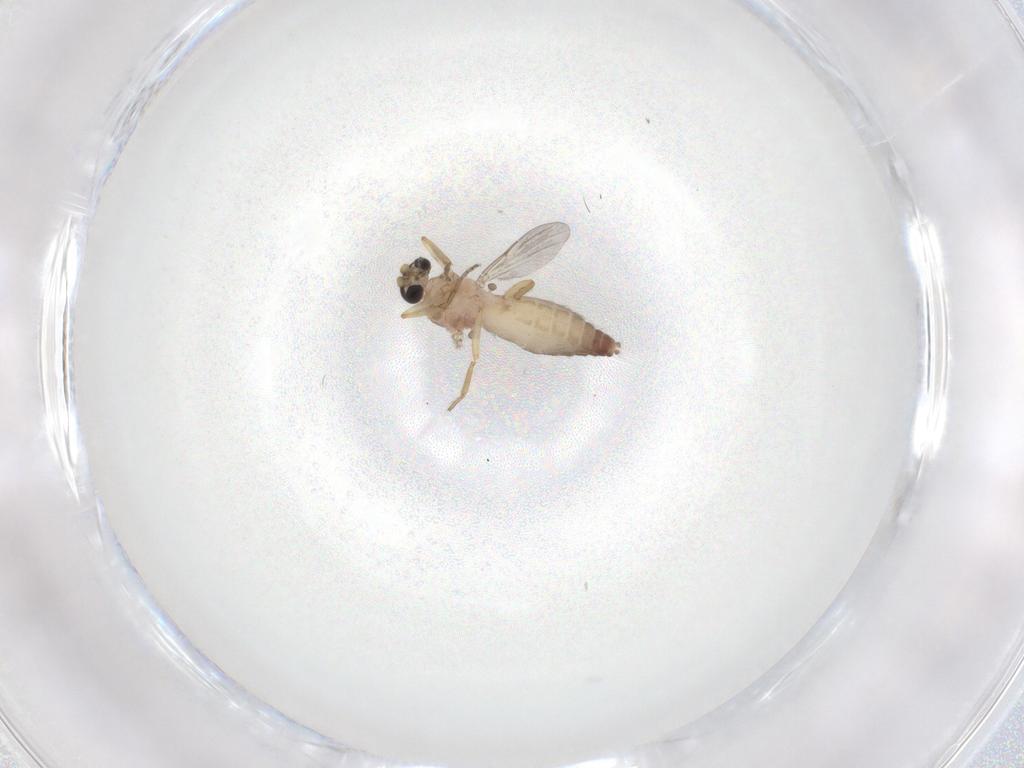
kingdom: Animalia
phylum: Arthropoda
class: Insecta
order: Diptera
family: Ceratopogonidae
